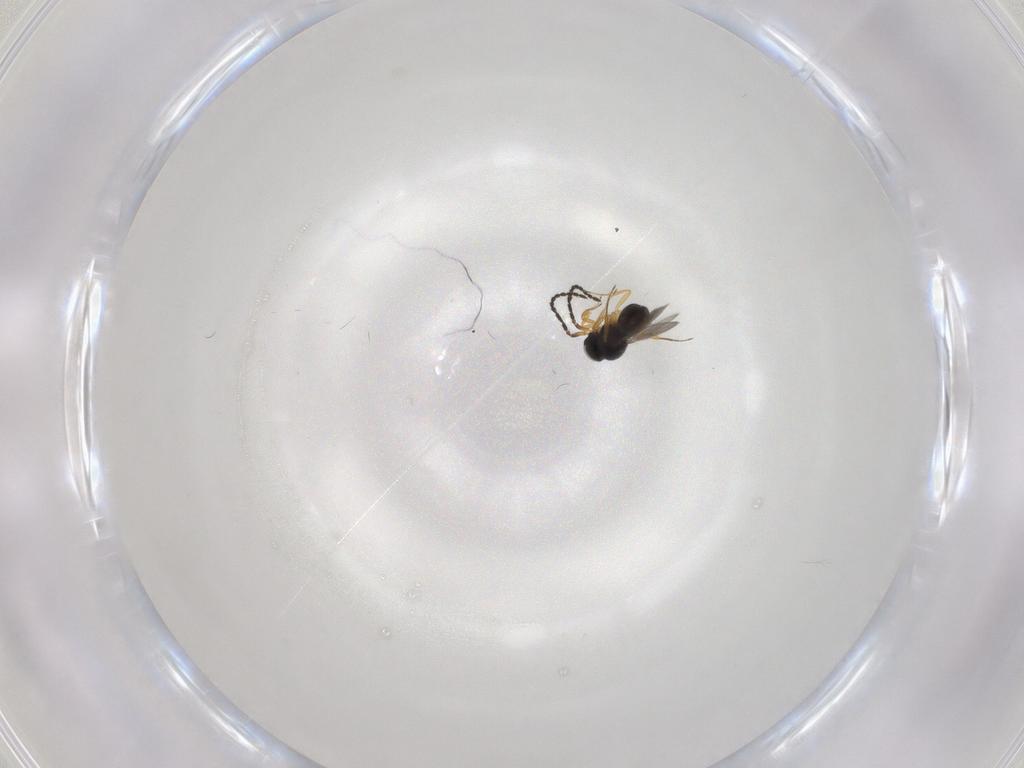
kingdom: Animalia
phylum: Arthropoda
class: Insecta
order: Hymenoptera
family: Scelionidae
